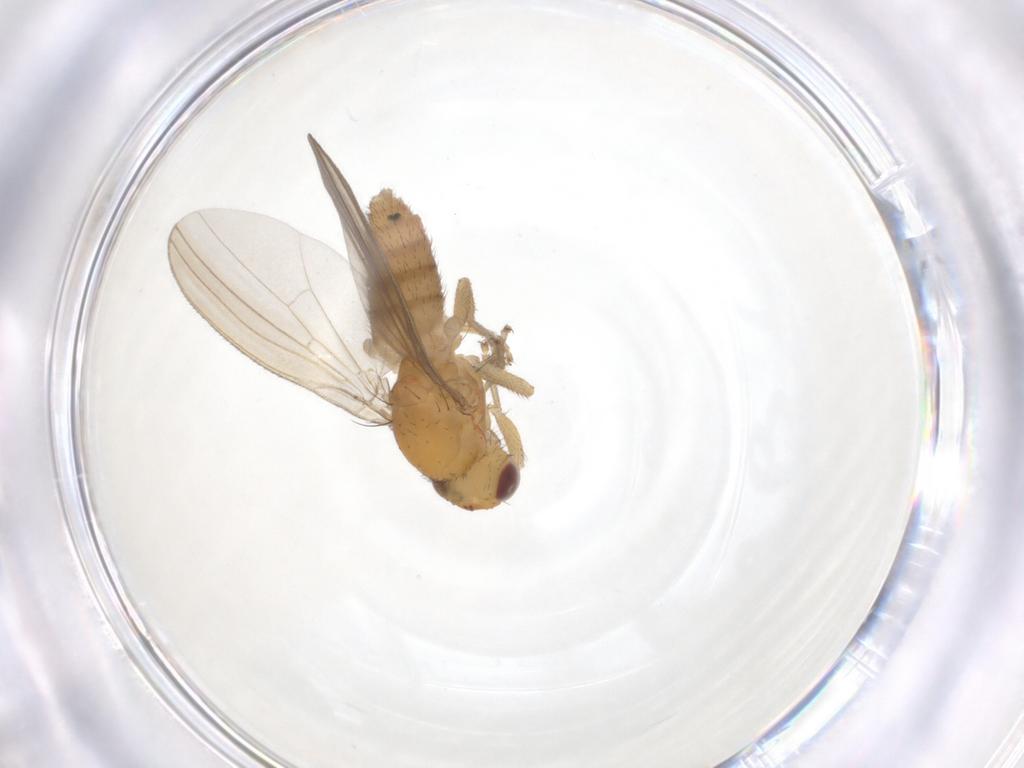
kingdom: Animalia
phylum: Arthropoda
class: Insecta
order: Diptera
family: Natalimyzidae
